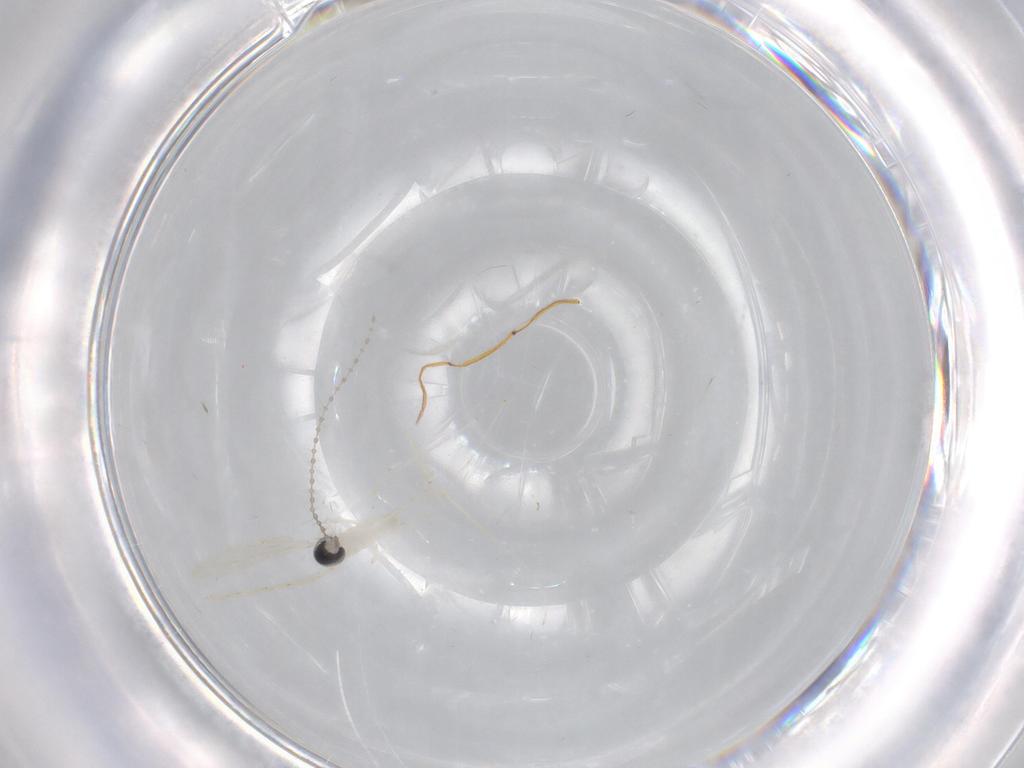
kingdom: Animalia
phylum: Arthropoda
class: Insecta
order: Diptera
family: Cecidomyiidae
